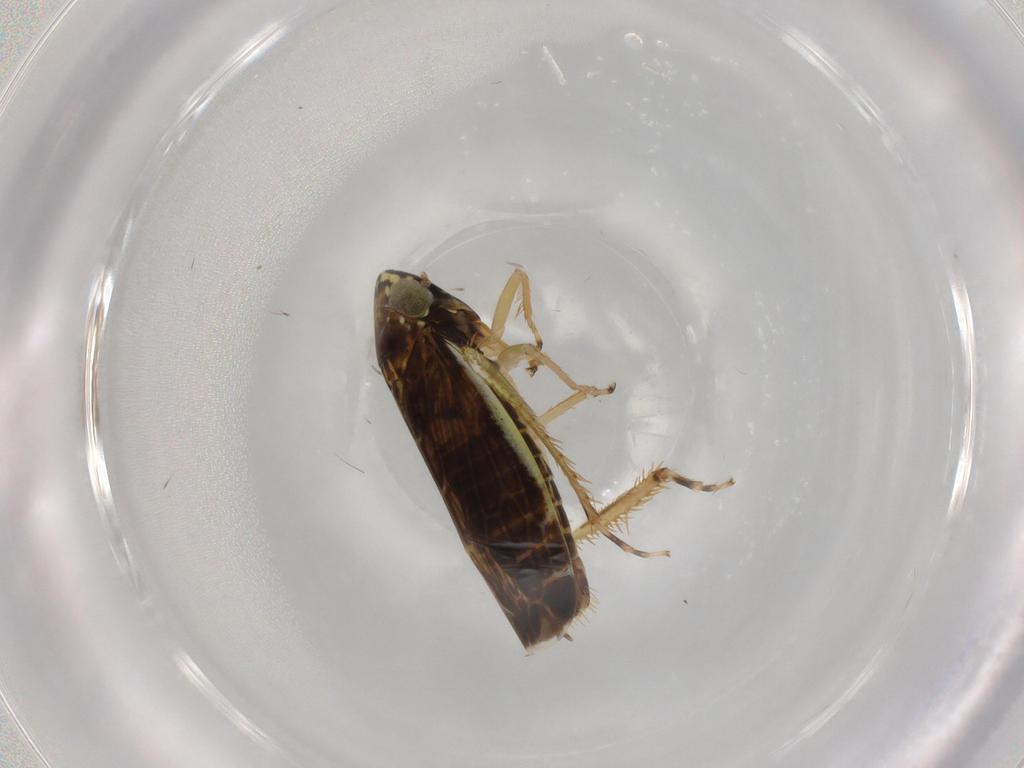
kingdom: Animalia
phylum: Arthropoda
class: Insecta
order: Hemiptera
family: Cicadellidae
